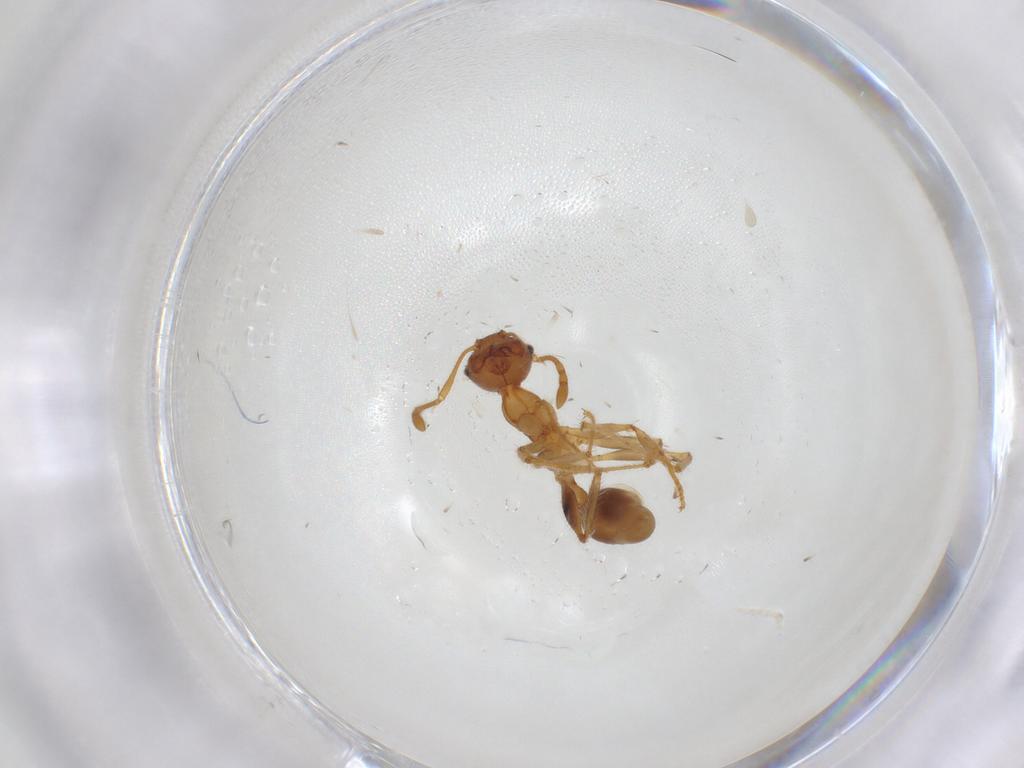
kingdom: Animalia
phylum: Arthropoda
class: Insecta
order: Hymenoptera
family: Formicidae
